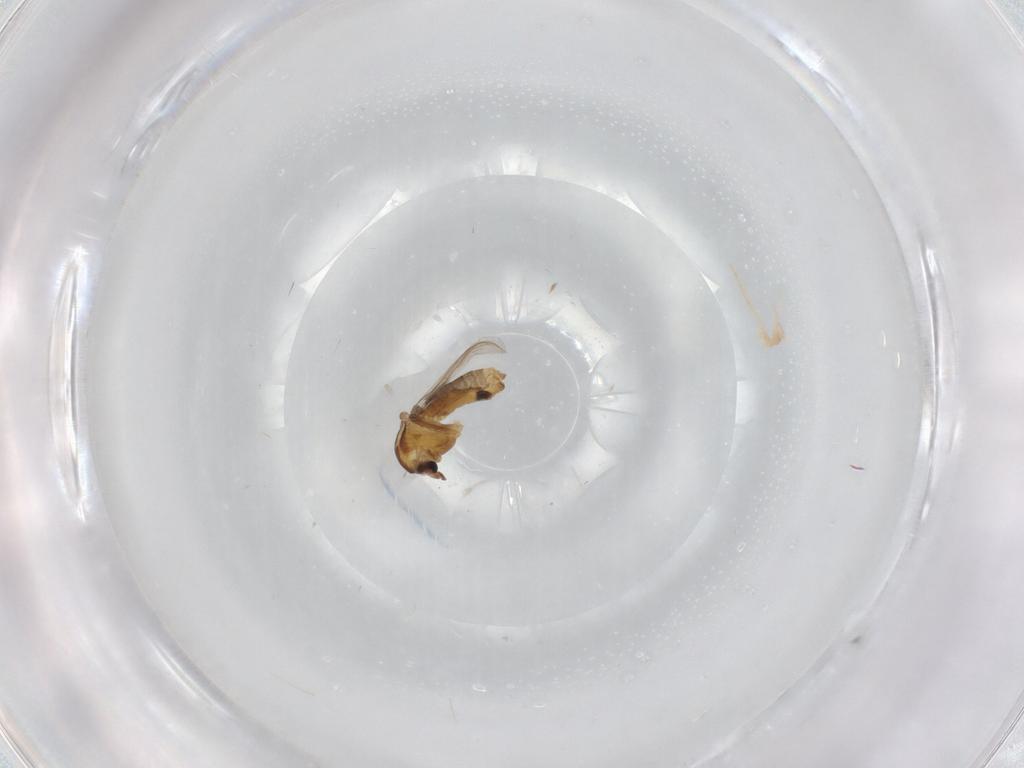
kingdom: Animalia
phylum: Arthropoda
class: Insecta
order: Diptera
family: Chironomidae
